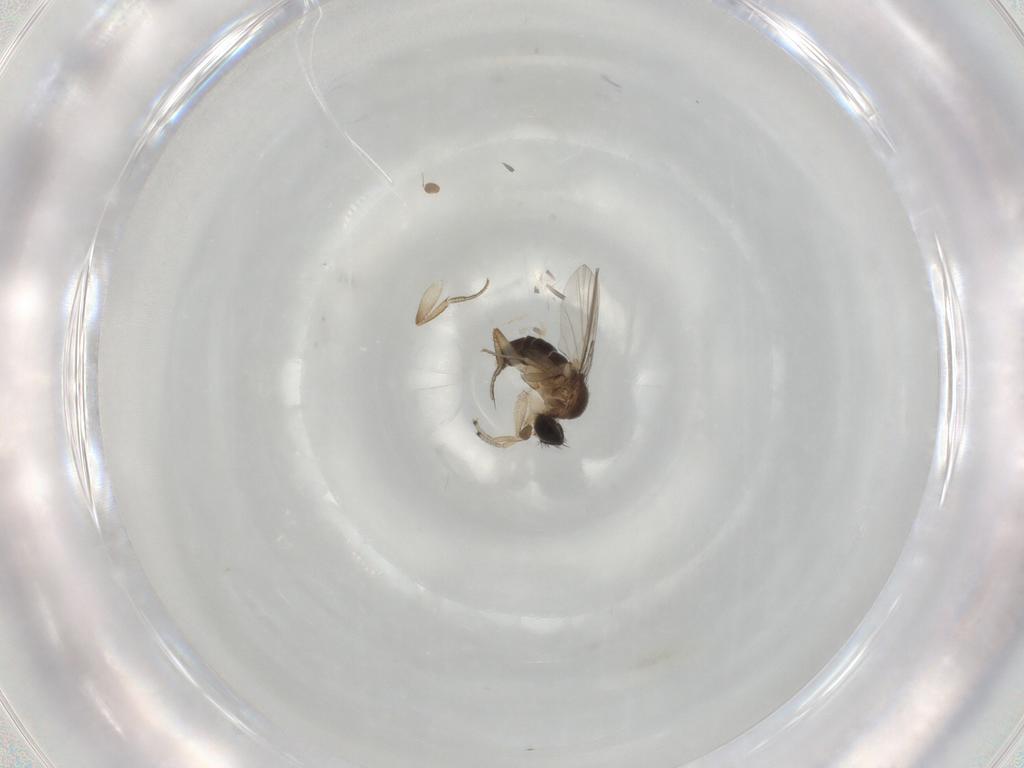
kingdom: Animalia
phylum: Arthropoda
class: Insecta
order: Diptera
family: Phoridae
